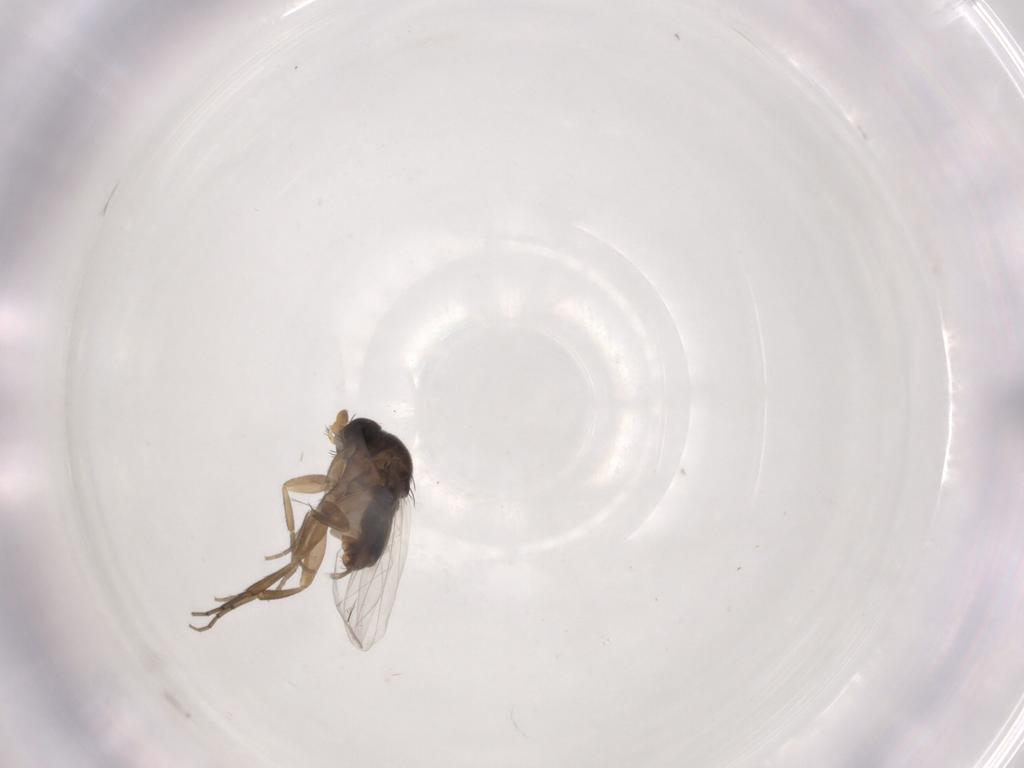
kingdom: Animalia
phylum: Arthropoda
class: Insecta
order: Diptera
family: Phoridae
